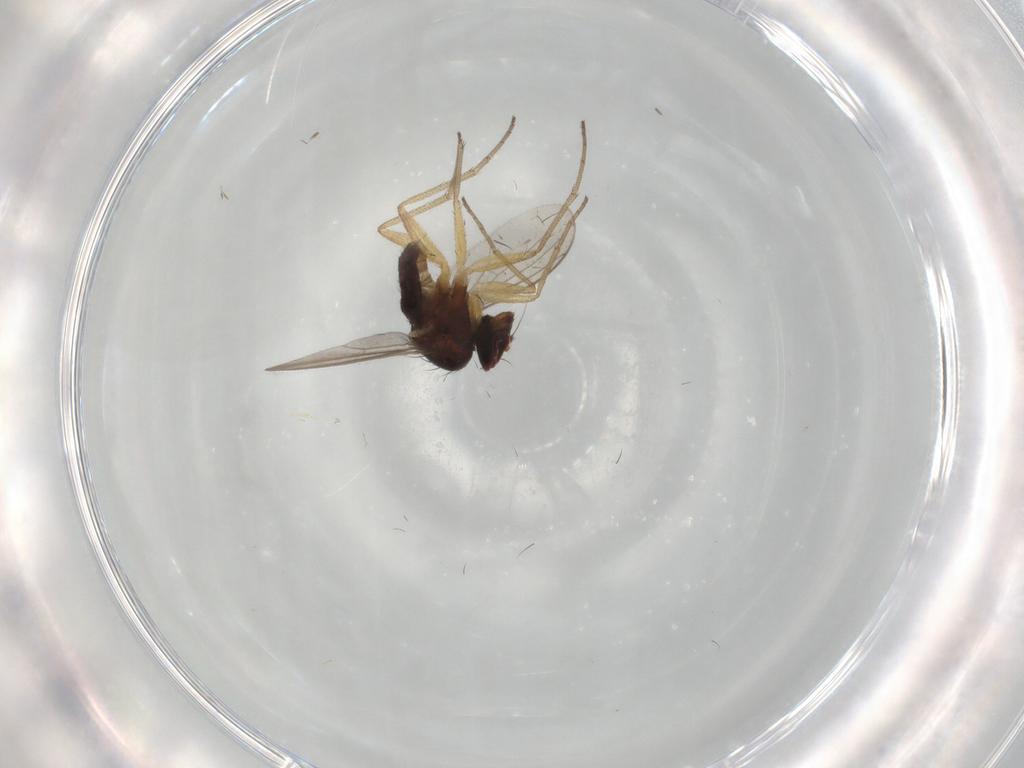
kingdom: Animalia
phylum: Arthropoda
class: Insecta
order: Diptera
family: Dolichopodidae
